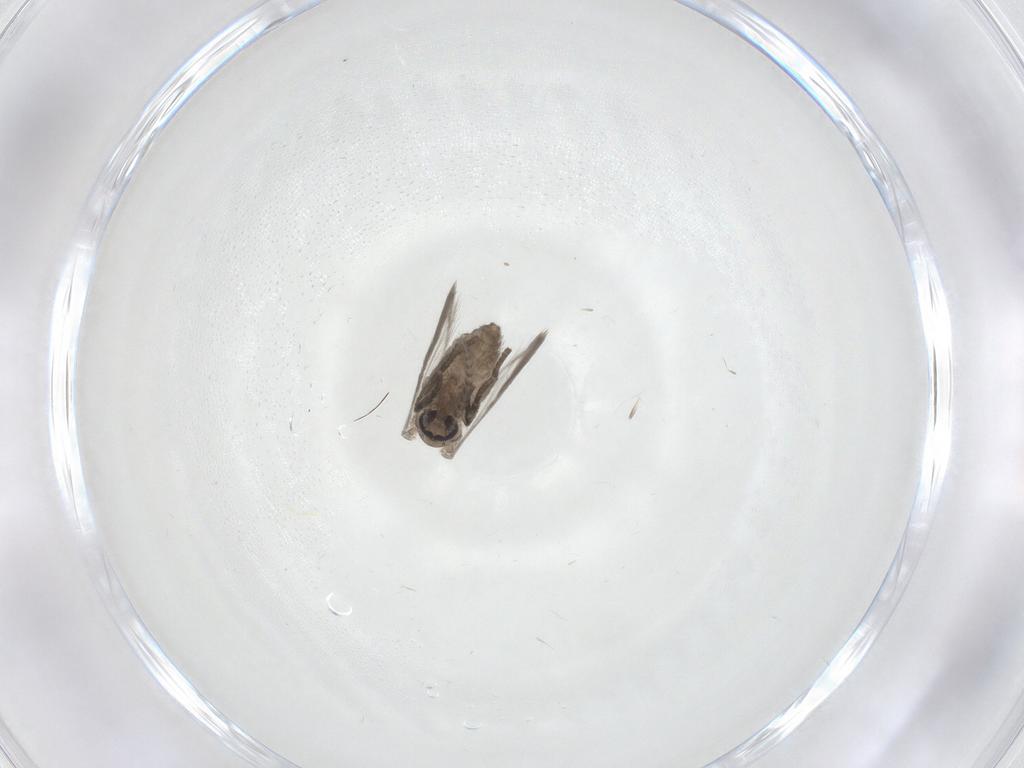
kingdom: Animalia
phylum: Arthropoda
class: Insecta
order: Diptera
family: Psychodidae
